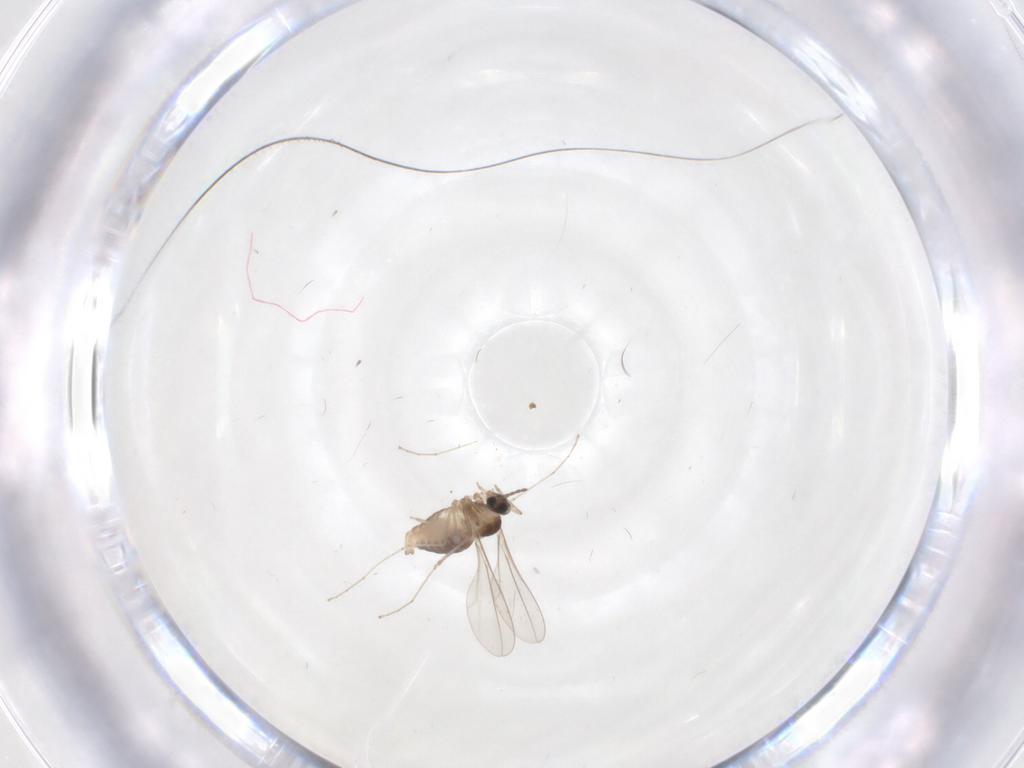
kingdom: Animalia
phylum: Arthropoda
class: Insecta
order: Diptera
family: Cecidomyiidae
